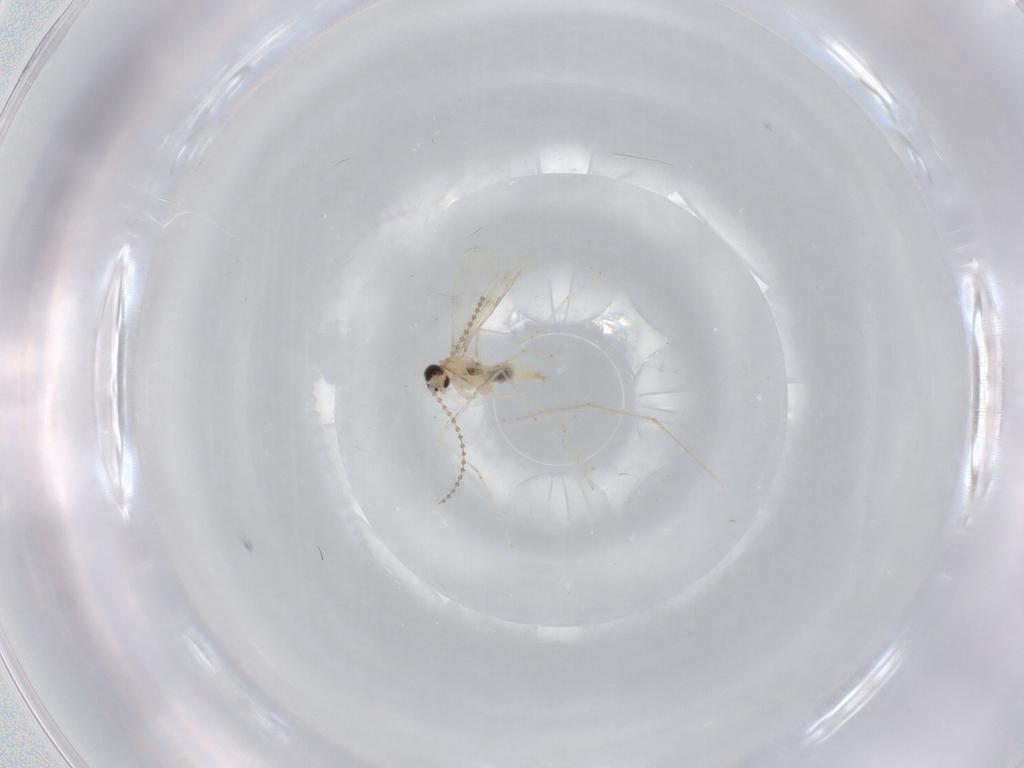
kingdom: Animalia
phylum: Arthropoda
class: Insecta
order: Diptera
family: Cecidomyiidae
